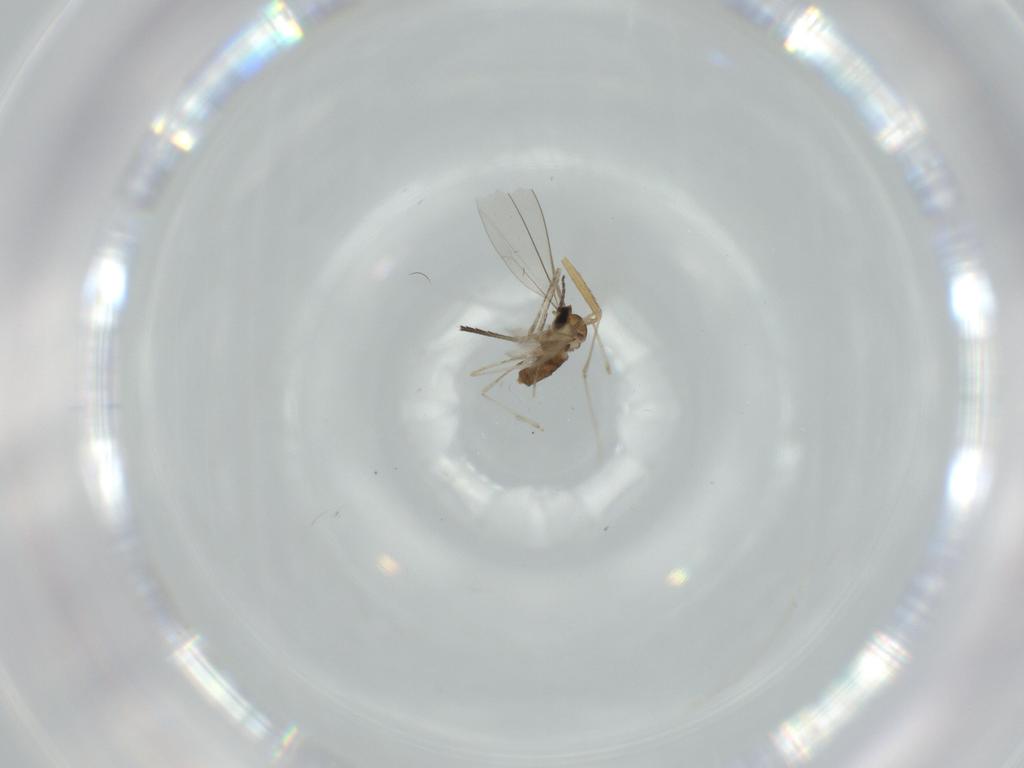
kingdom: Animalia
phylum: Arthropoda
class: Insecta
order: Diptera
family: Cecidomyiidae
